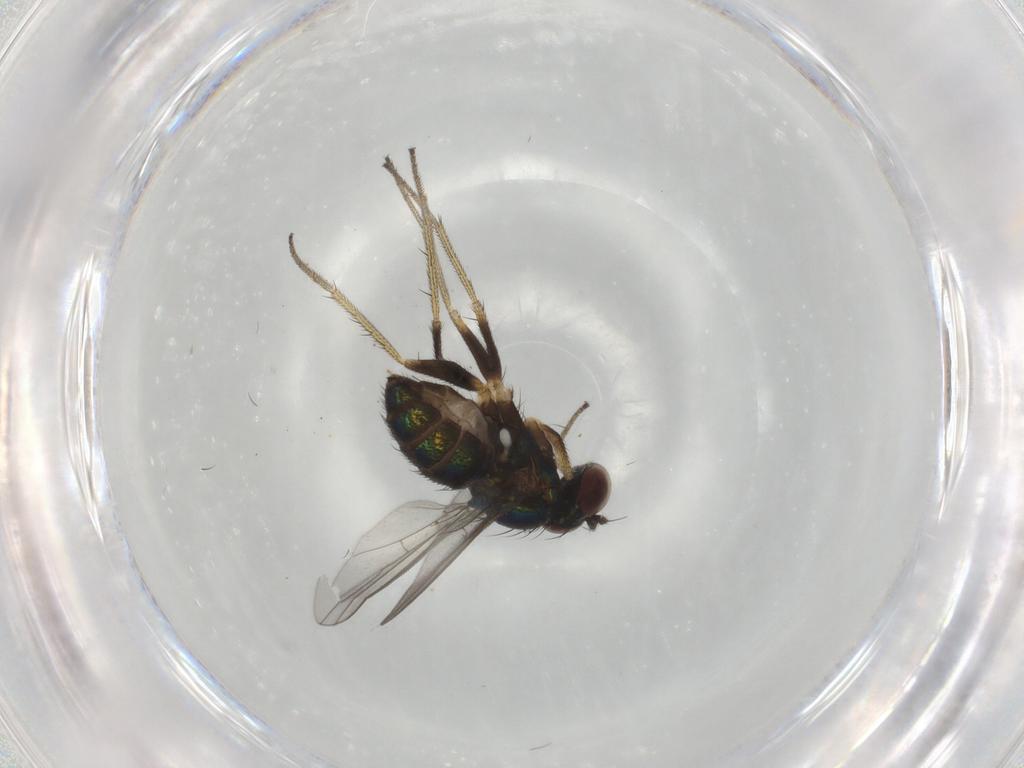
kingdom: Animalia
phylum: Arthropoda
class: Insecta
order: Diptera
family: Dolichopodidae
